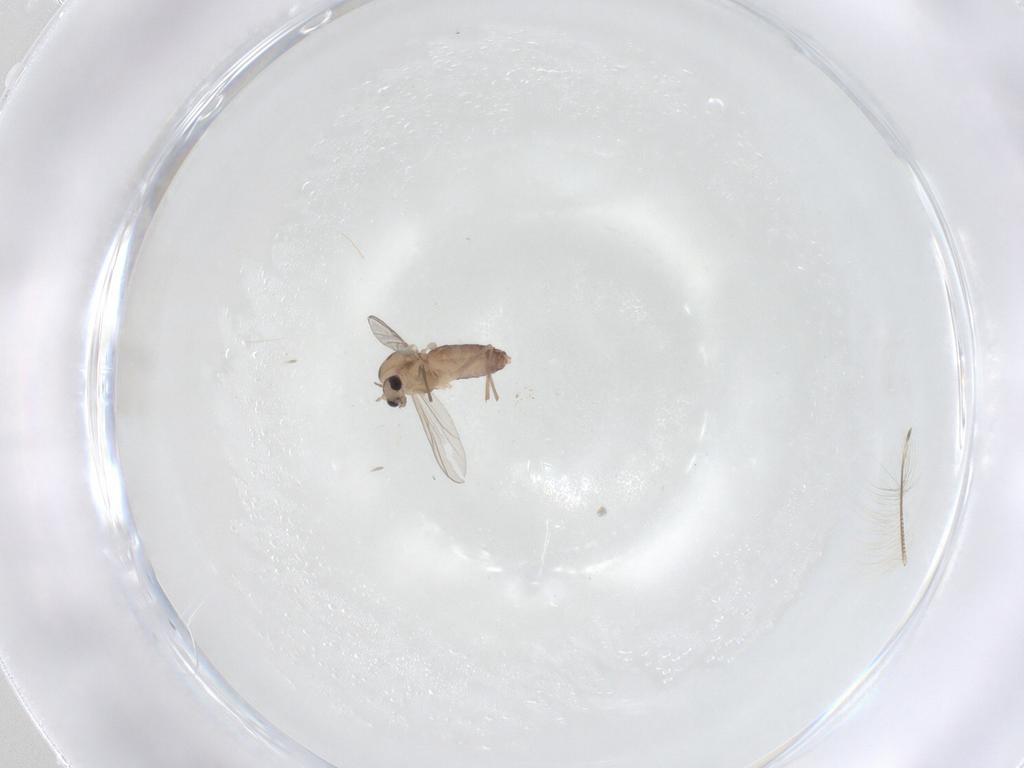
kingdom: Animalia
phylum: Arthropoda
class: Insecta
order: Diptera
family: Chironomidae
